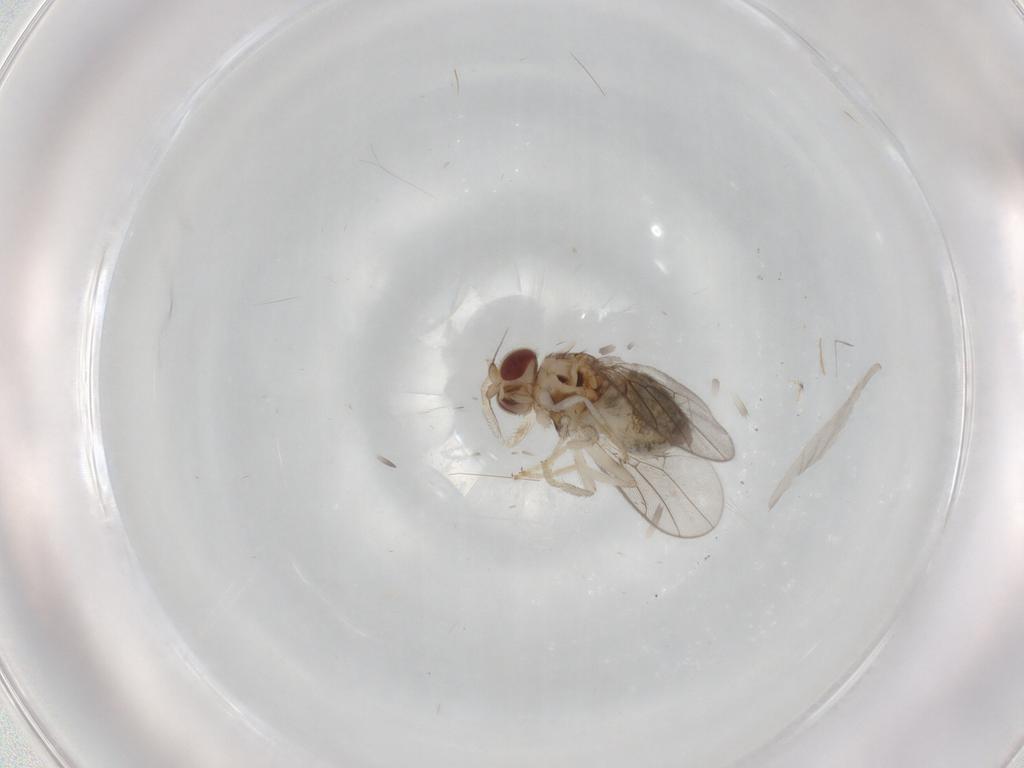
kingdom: Animalia
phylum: Arthropoda
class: Insecta
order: Diptera
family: Chloropidae
